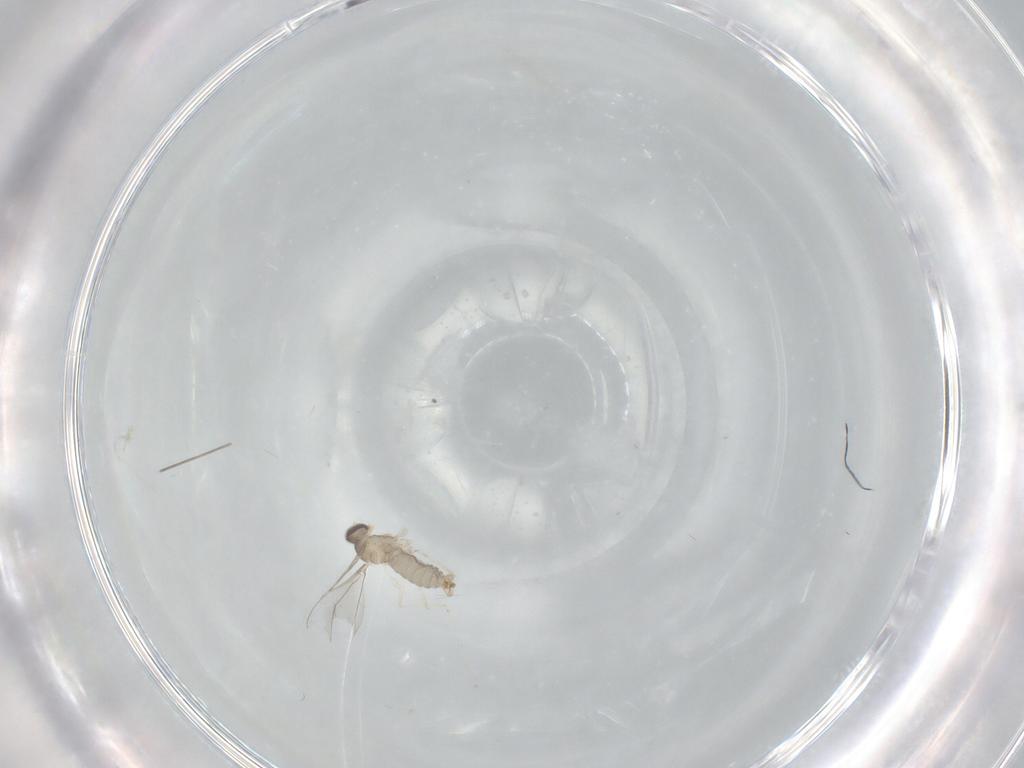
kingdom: Animalia
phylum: Arthropoda
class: Insecta
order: Diptera
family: Cecidomyiidae
